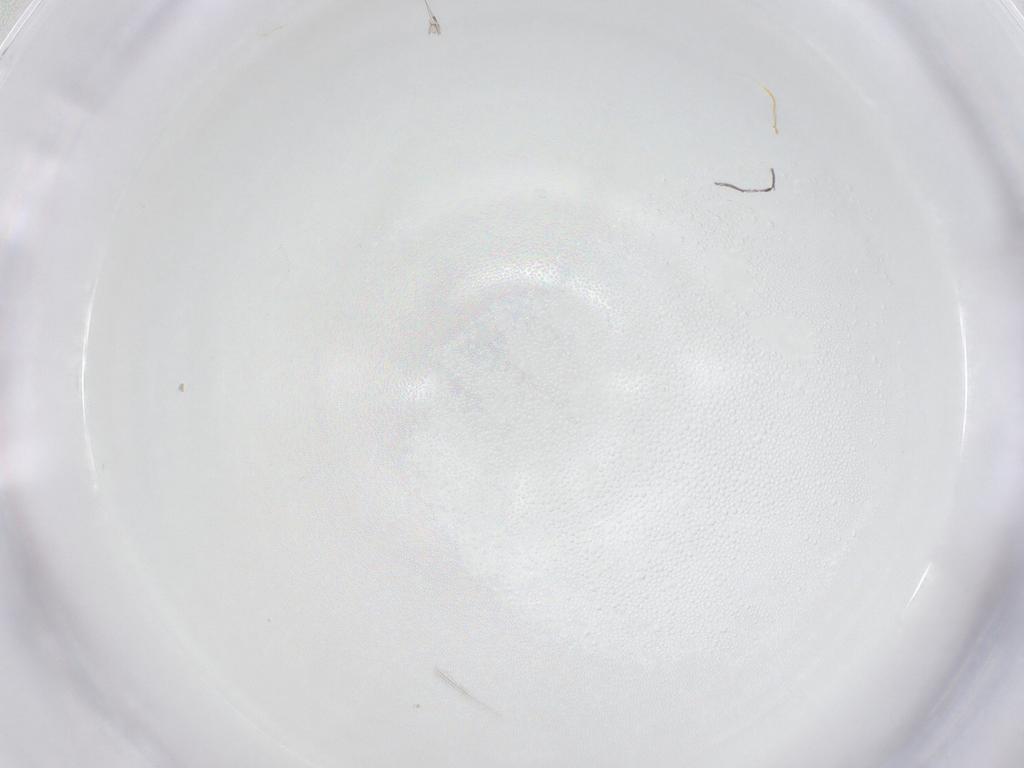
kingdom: Animalia
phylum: Arthropoda
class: Insecta
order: Diptera
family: Chironomidae
